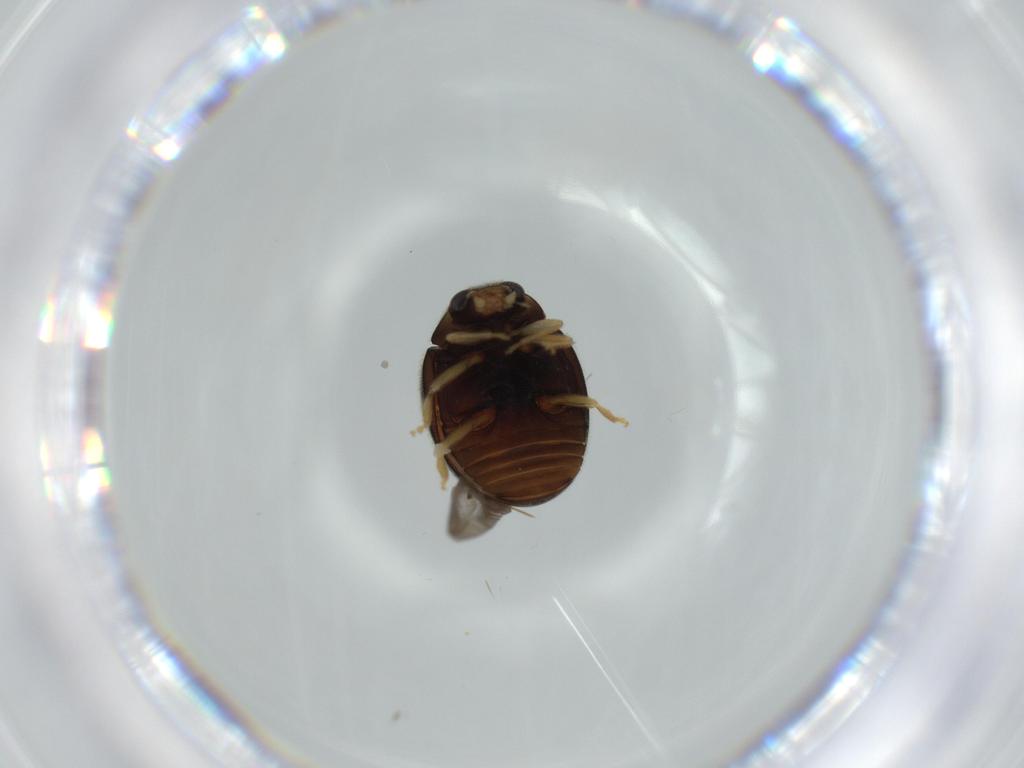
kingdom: Animalia
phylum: Arthropoda
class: Insecta
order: Coleoptera
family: Coccinellidae
